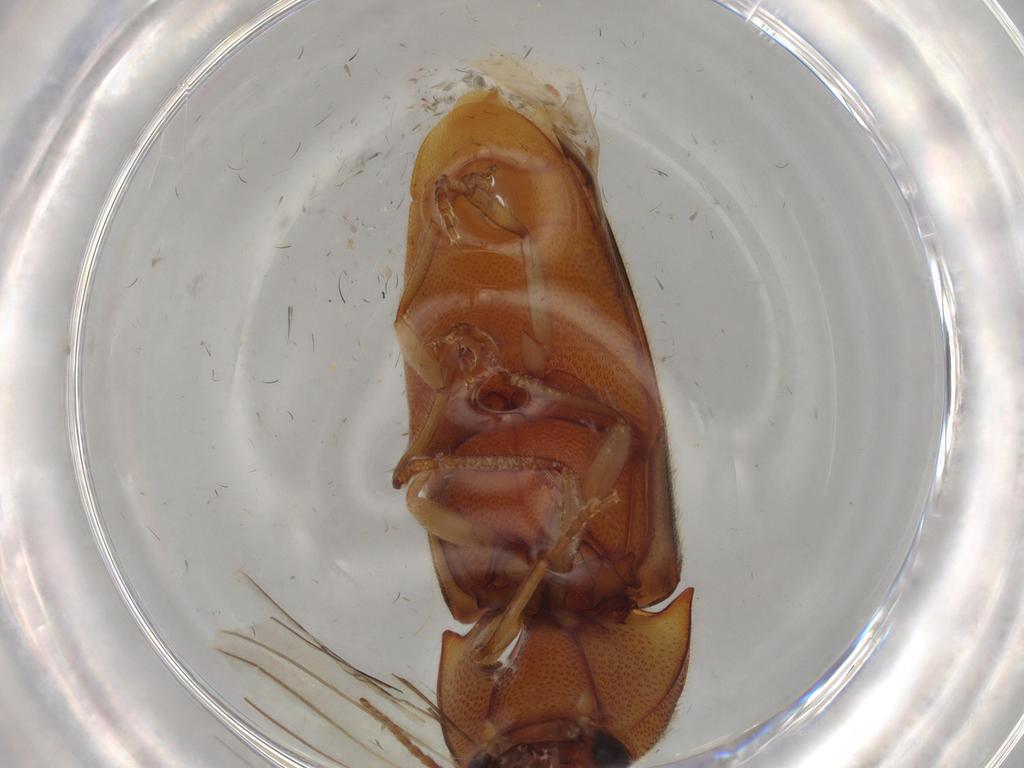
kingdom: Animalia
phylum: Arthropoda
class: Insecta
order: Coleoptera
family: Elateridae
